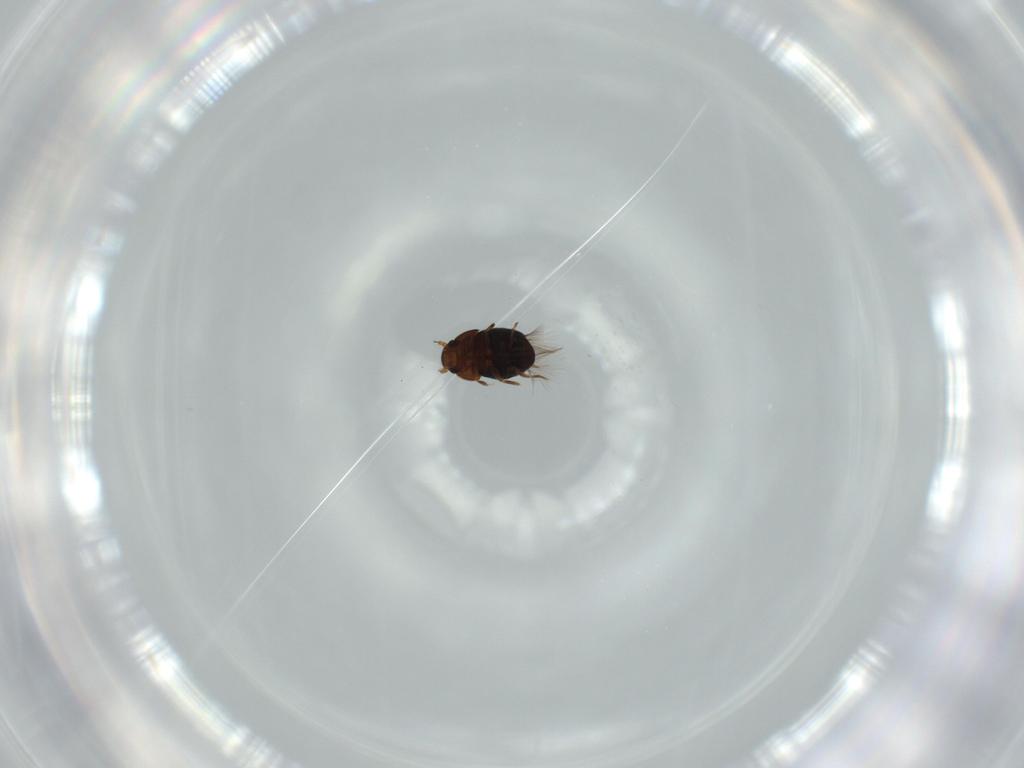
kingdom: Animalia
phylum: Arthropoda
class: Insecta
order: Coleoptera
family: Ptiliidae
